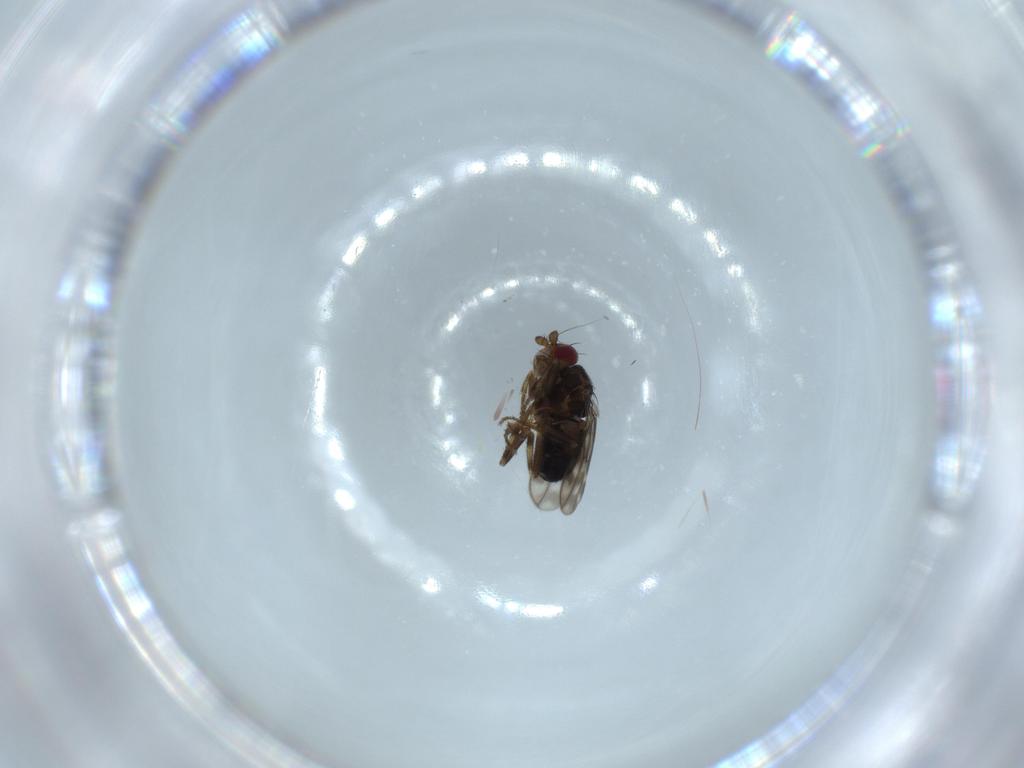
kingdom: Animalia
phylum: Arthropoda
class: Insecta
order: Diptera
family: Sphaeroceridae
